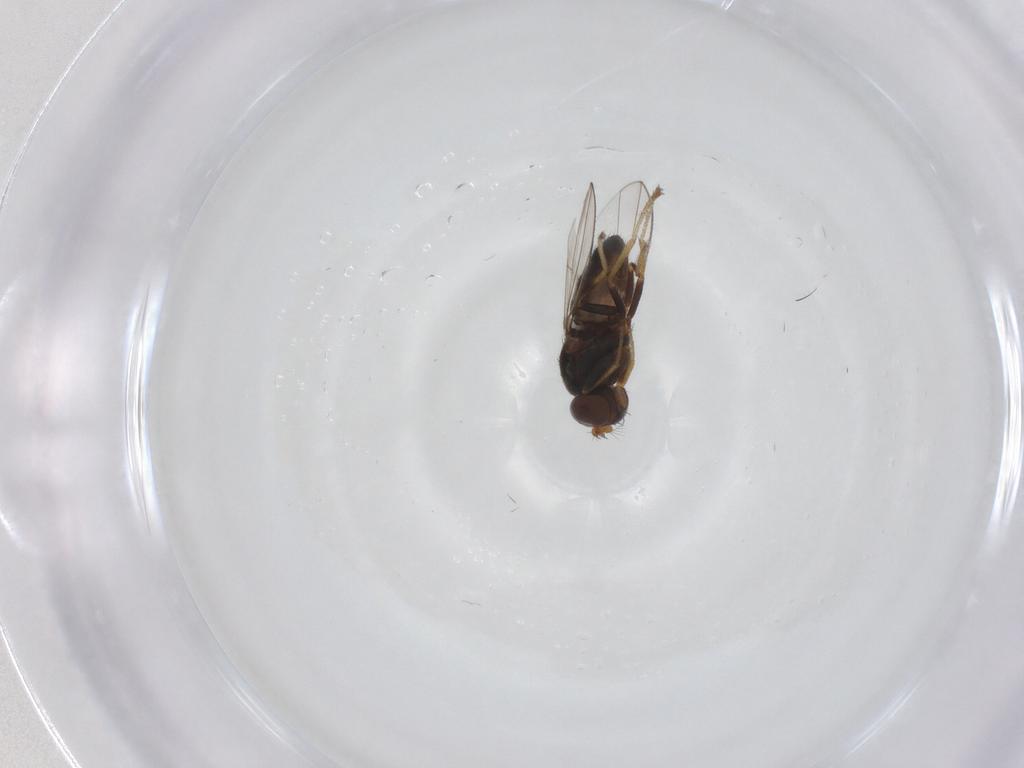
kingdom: Animalia
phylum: Arthropoda
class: Insecta
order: Diptera
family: Ephydridae
